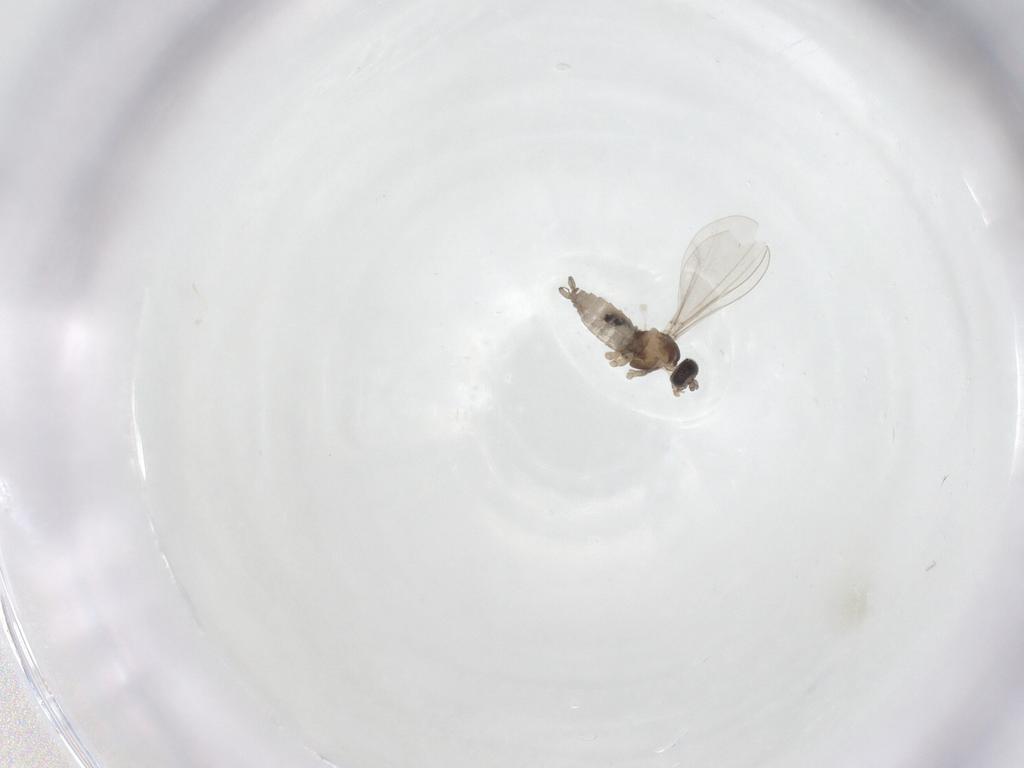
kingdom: Animalia
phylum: Arthropoda
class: Insecta
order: Diptera
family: Cecidomyiidae
